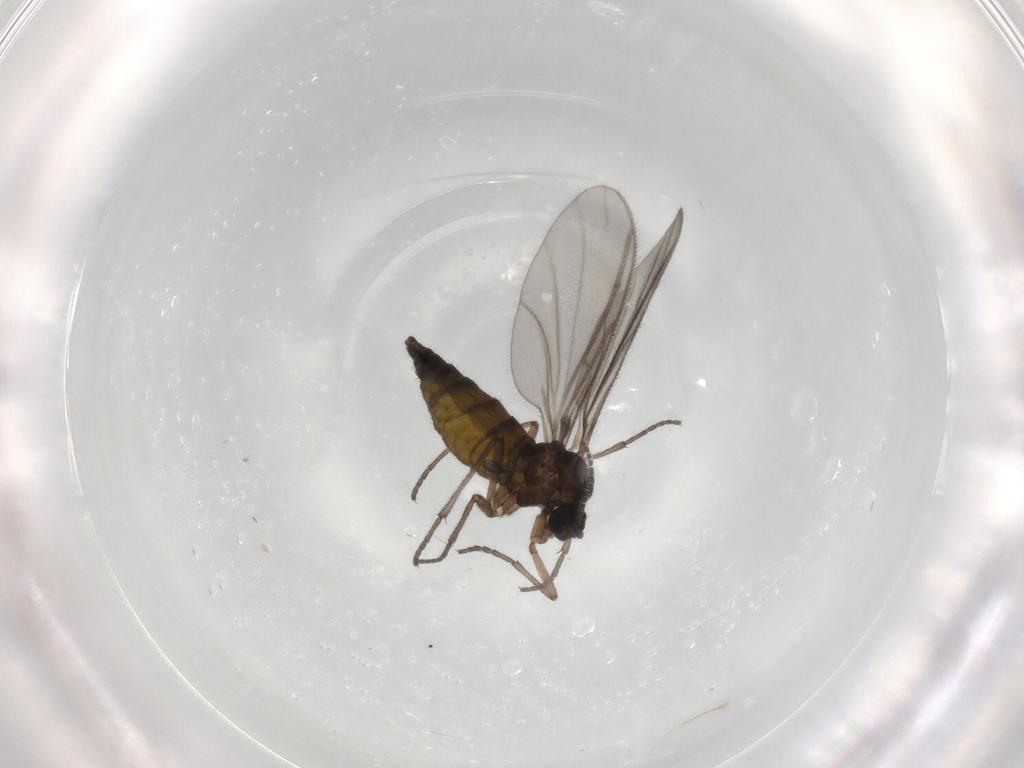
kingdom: Animalia
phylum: Arthropoda
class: Insecta
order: Diptera
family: Sciaridae
